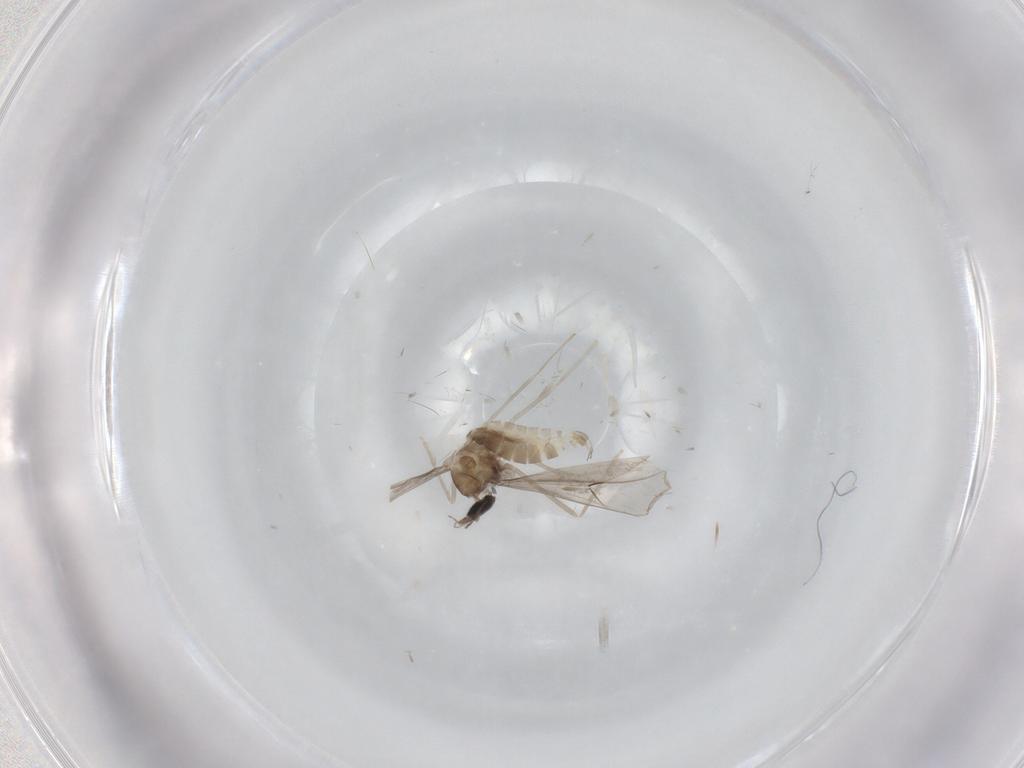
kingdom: Animalia
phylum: Arthropoda
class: Insecta
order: Diptera
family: Cecidomyiidae
